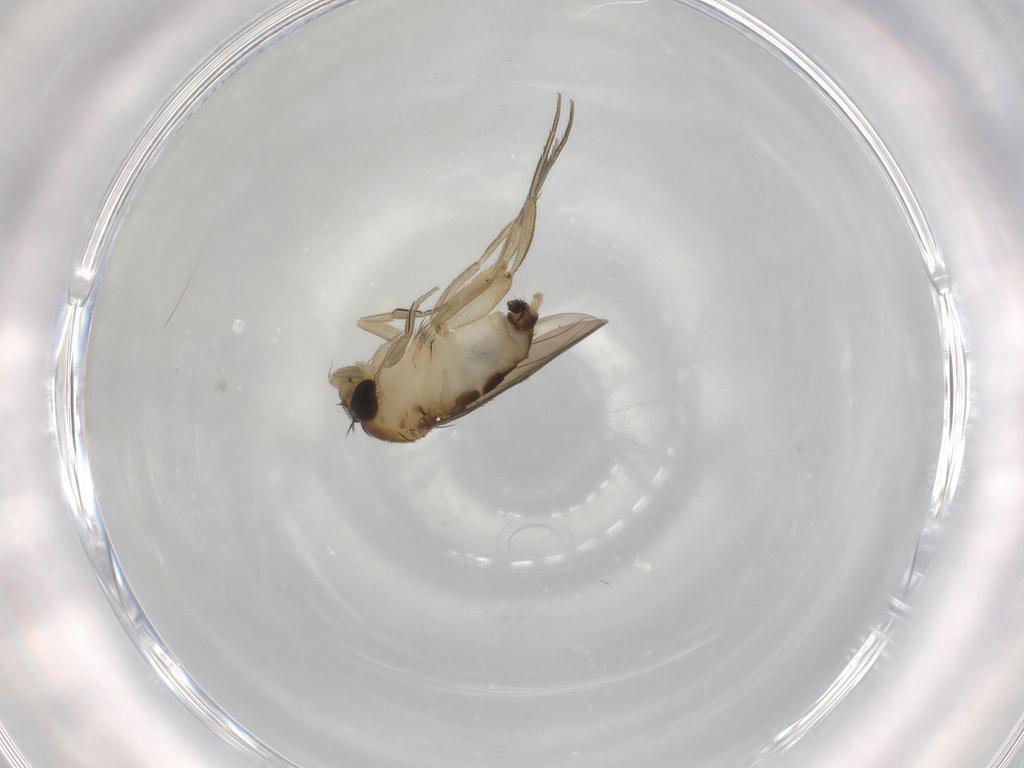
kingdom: Animalia
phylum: Arthropoda
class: Insecta
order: Diptera
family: Phoridae
